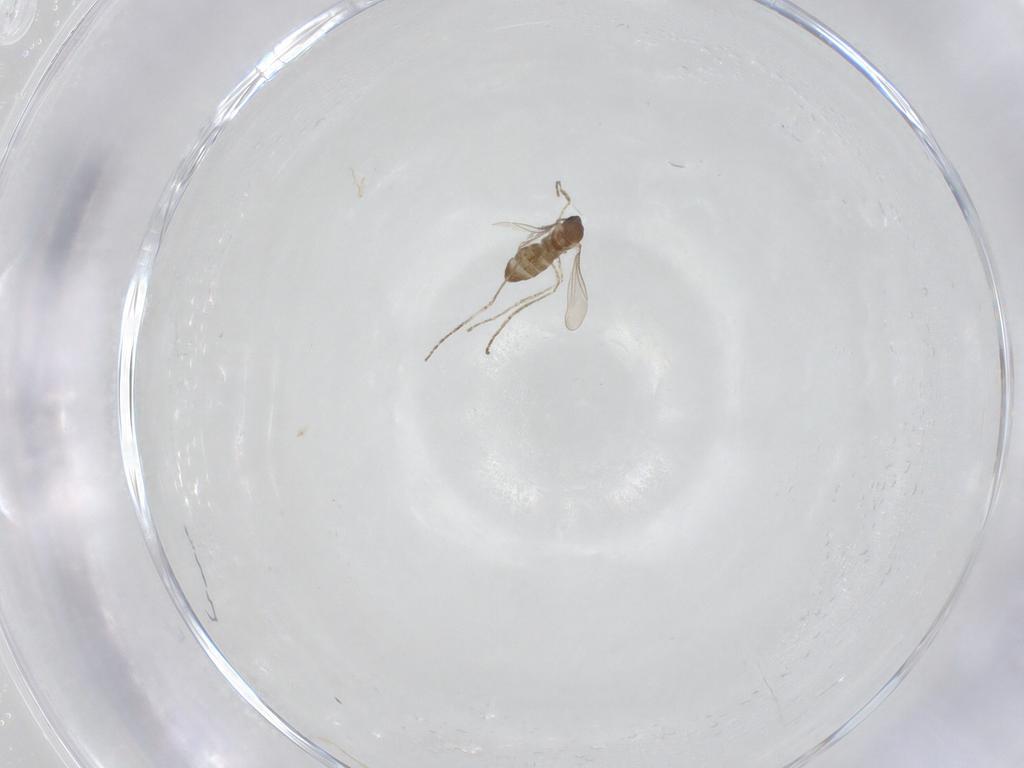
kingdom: Animalia
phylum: Arthropoda
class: Insecta
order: Diptera
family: Cecidomyiidae
